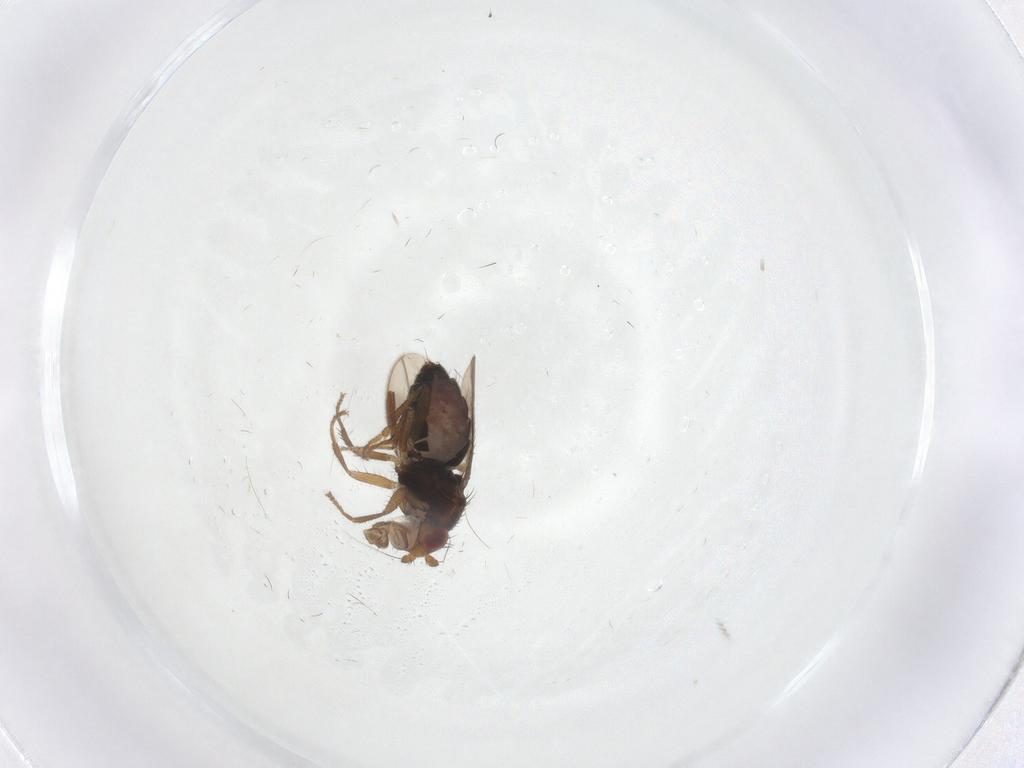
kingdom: Animalia
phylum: Arthropoda
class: Insecta
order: Diptera
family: Sphaeroceridae
